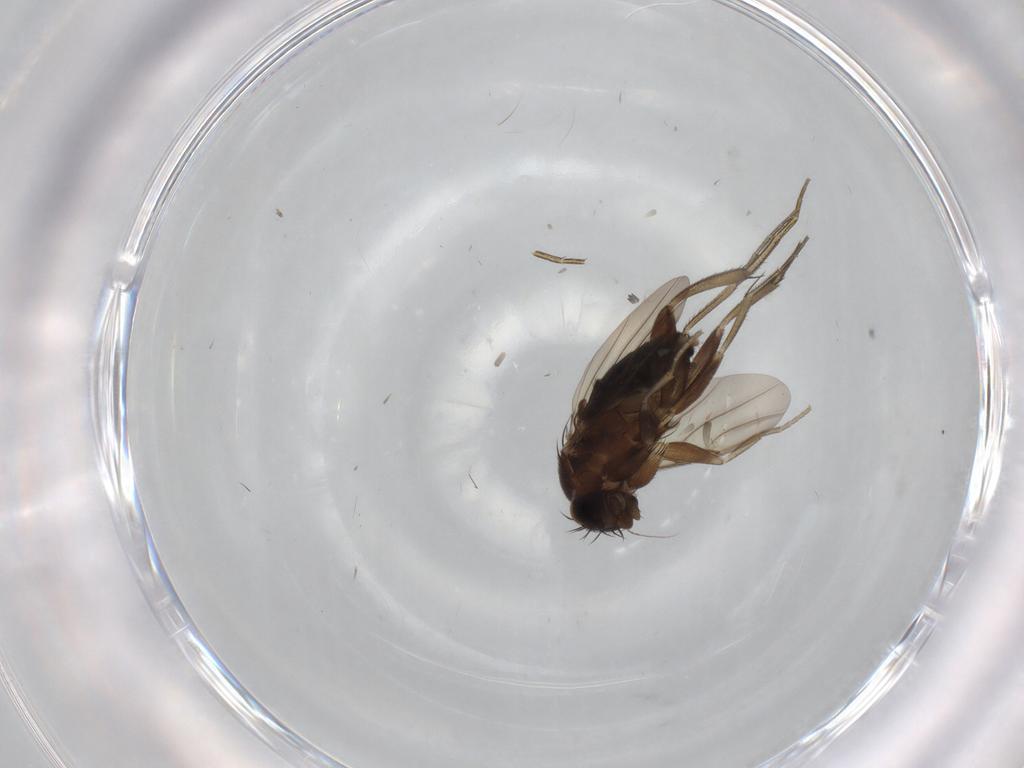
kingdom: Animalia
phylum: Arthropoda
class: Insecta
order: Diptera
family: Phoridae
